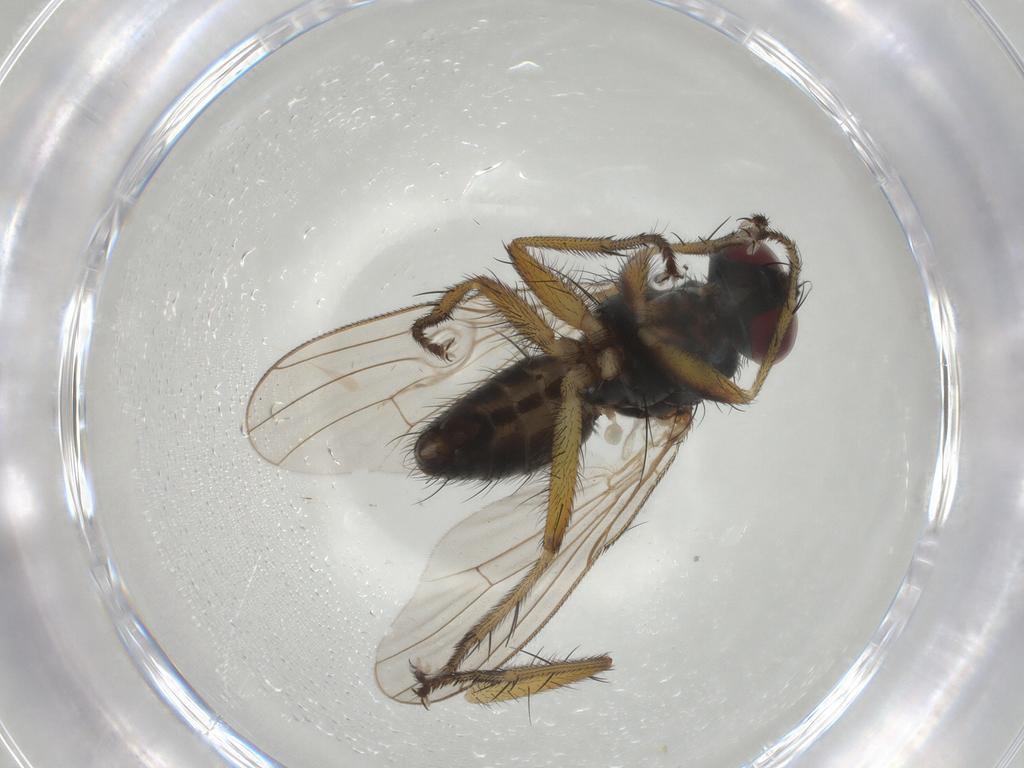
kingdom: Animalia
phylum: Arthropoda
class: Insecta
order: Diptera
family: Muscidae
